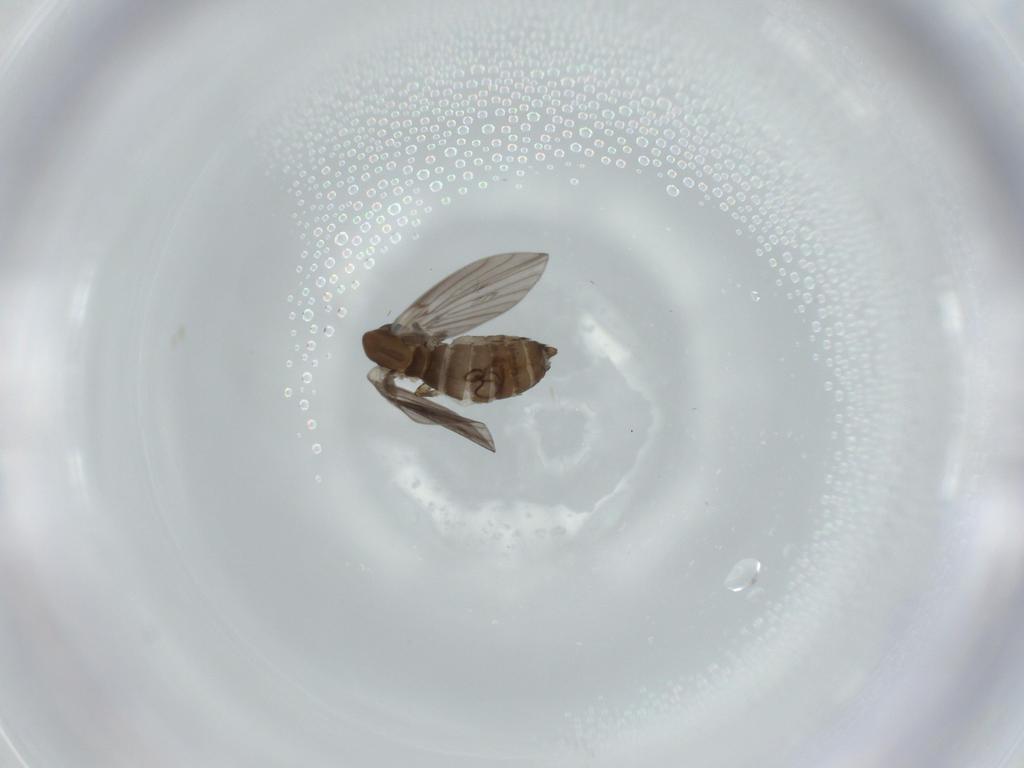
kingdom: Animalia
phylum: Arthropoda
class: Insecta
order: Diptera
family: Psychodidae
